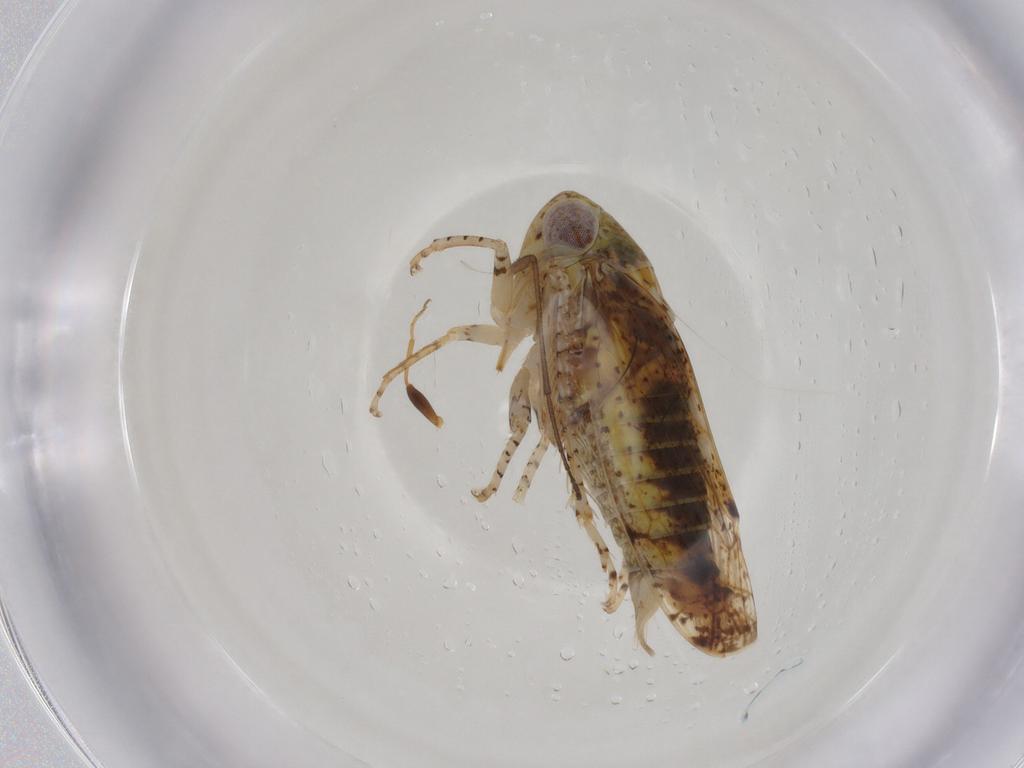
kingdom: Animalia
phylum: Arthropoda
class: Insecta
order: Hemiptera
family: Cicadellidae
